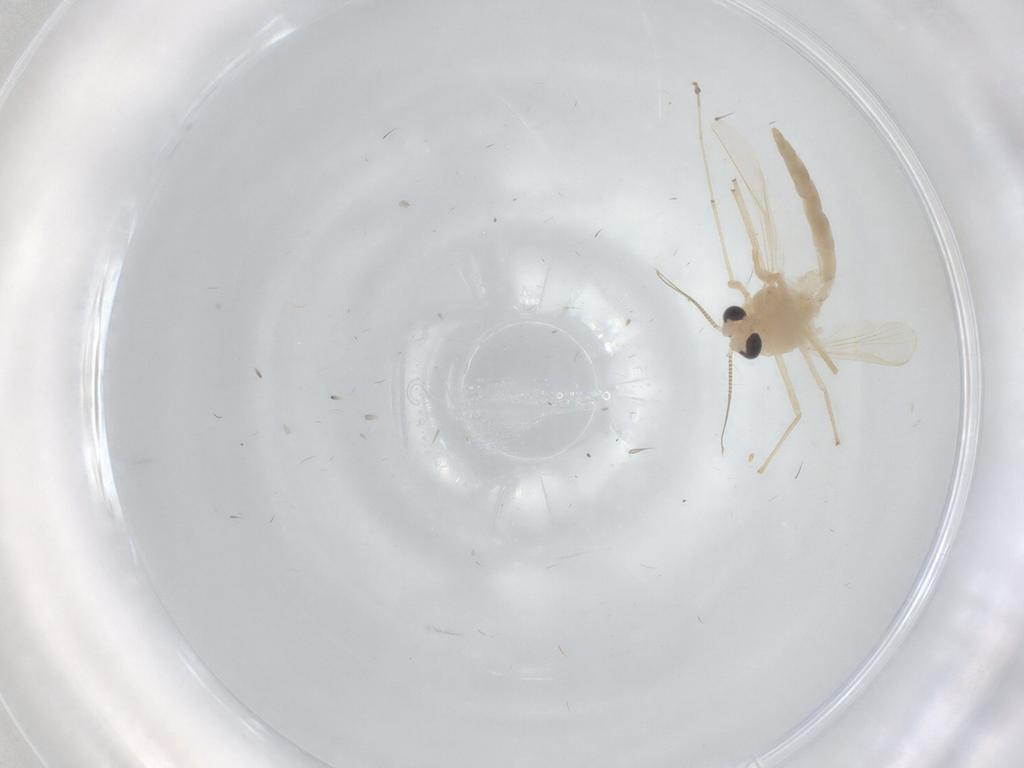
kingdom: Animalia
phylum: Arthropoda
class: Insecta
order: Diptera
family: Chironomidae
